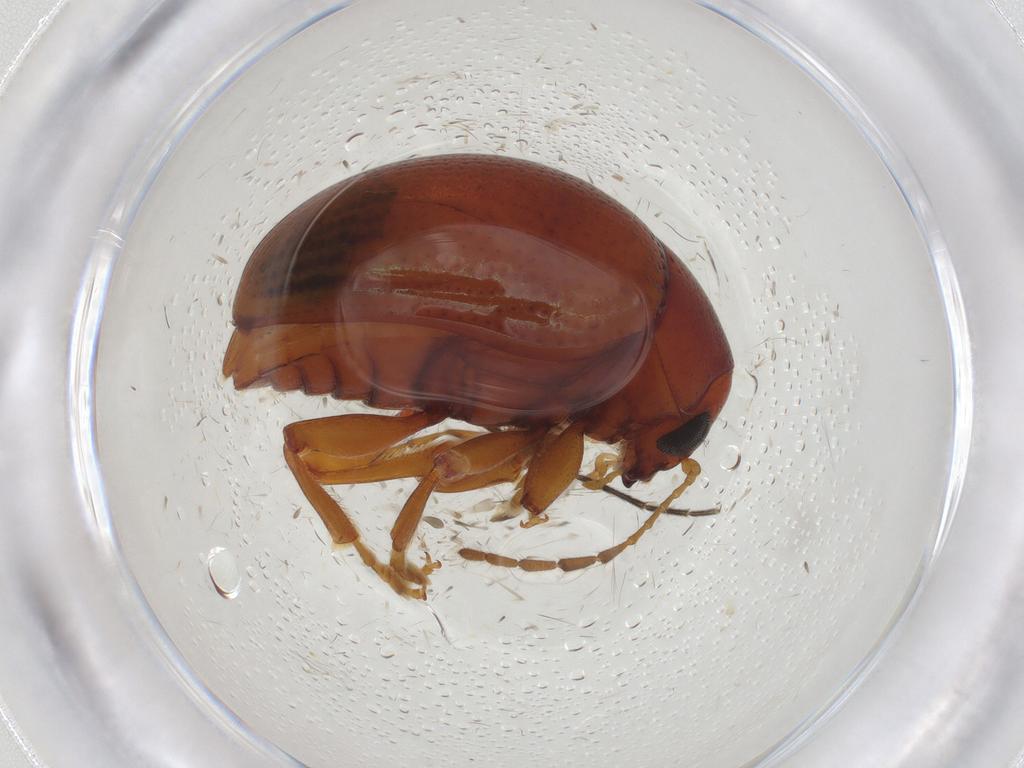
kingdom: Animalia
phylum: Arthropoda
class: Insecta
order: Coleoptera
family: Chrysomelidae
